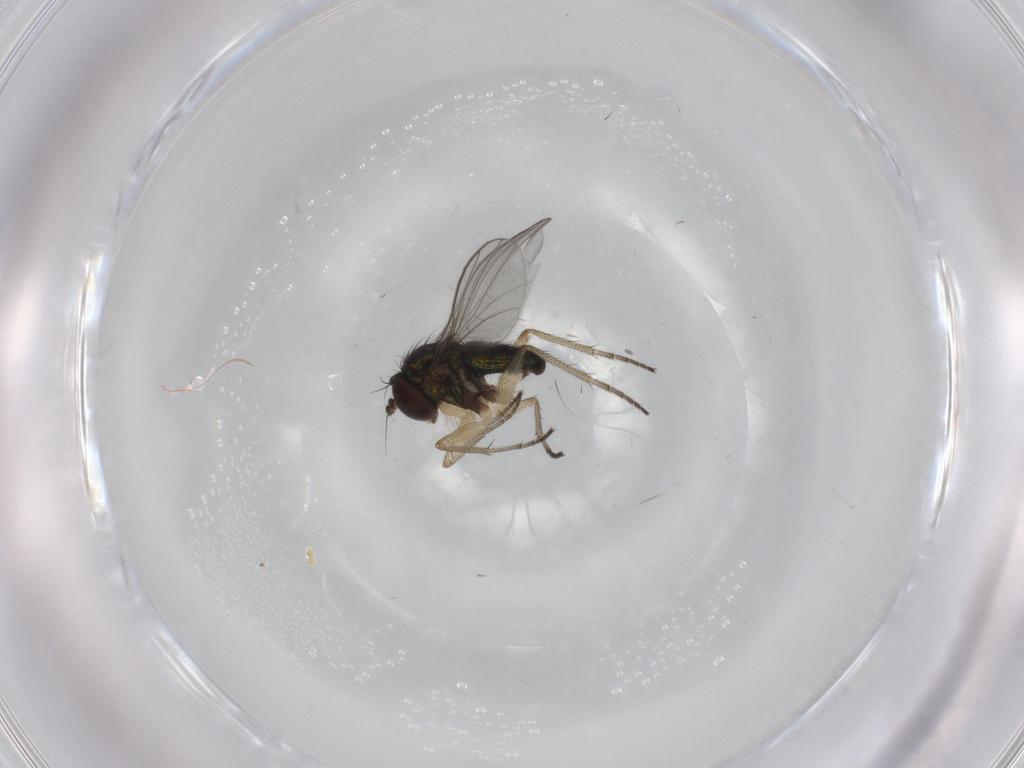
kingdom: Animalia
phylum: Arthropoda
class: Insecta
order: Diptera
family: Dolichopodidae
